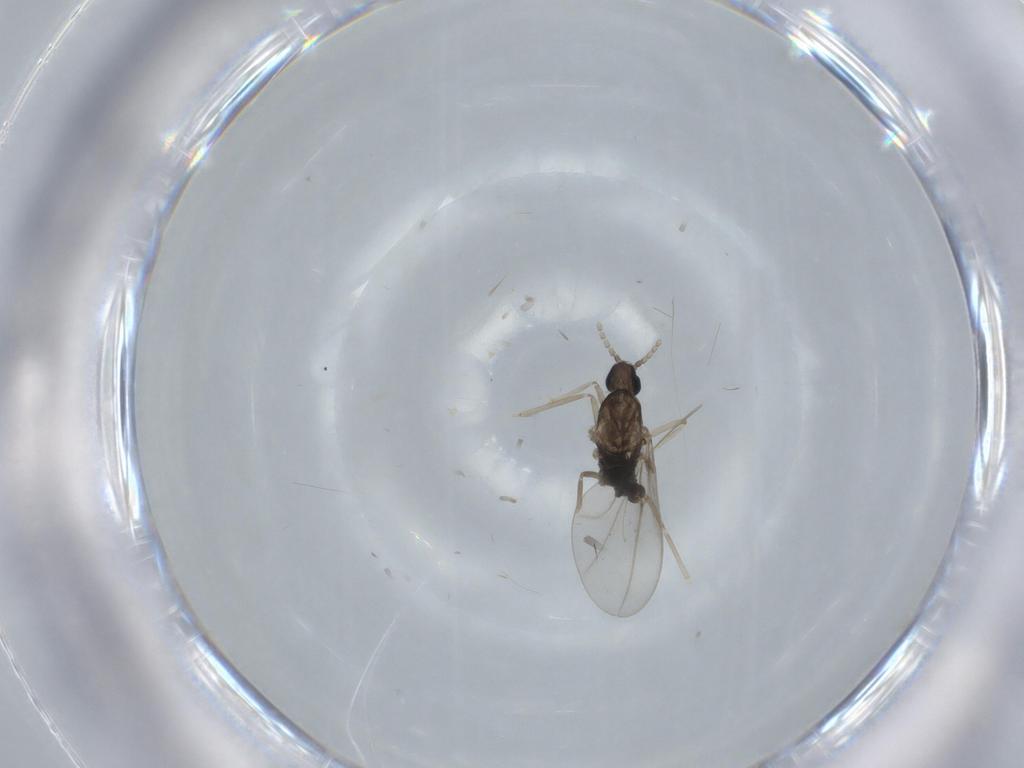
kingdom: Animalia
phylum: Arthropoda
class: Insecta
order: Diptera
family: Cecidomyiidae
